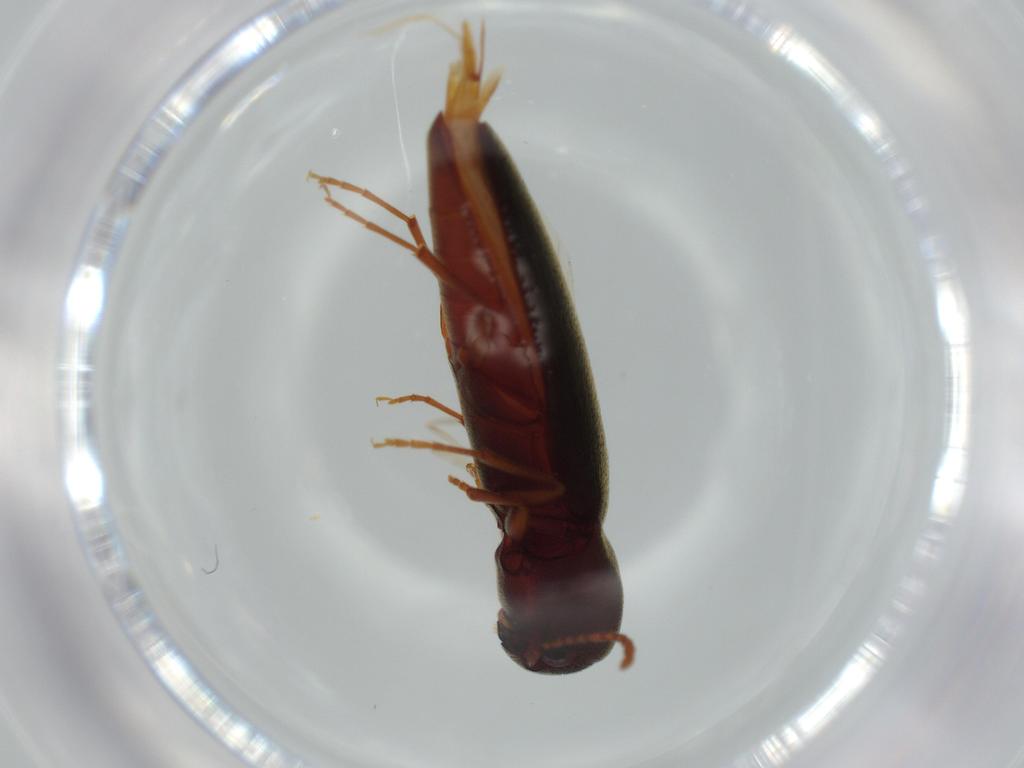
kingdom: Animalia
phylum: Arthropoda
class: Insecta
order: Coleoptera
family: Eucnemidae
